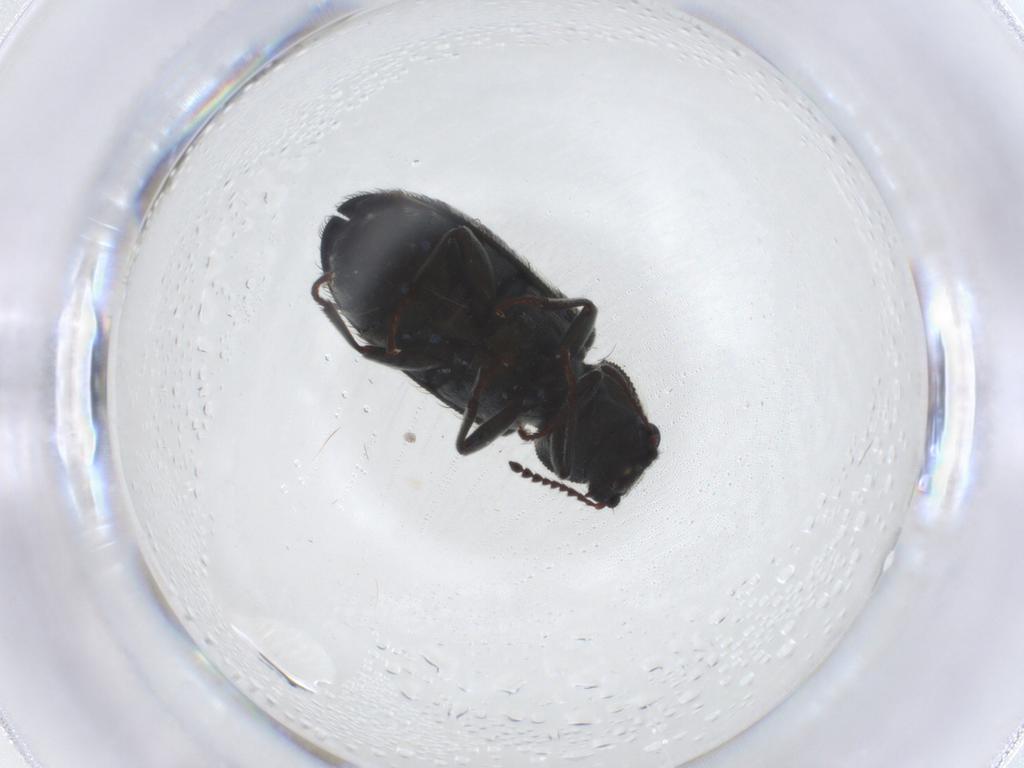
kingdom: Animalia
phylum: Arthropoda
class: Insecta
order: Coleoptera
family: Melyridae
